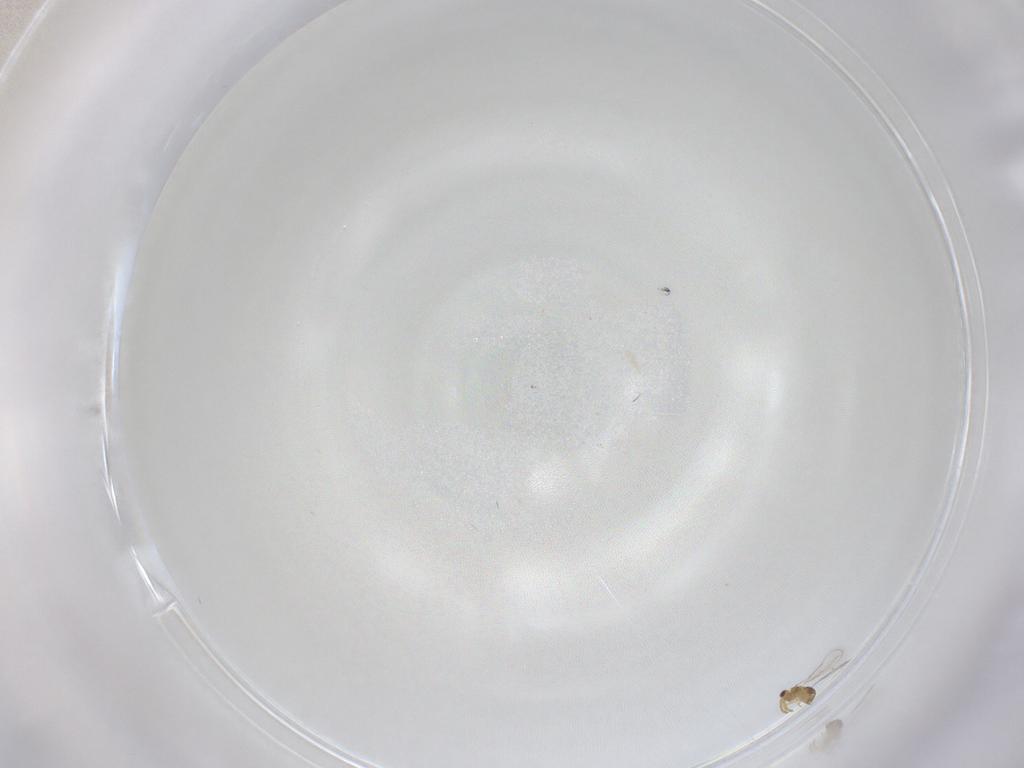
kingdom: Animalia
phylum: Arthropoda
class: Insecta
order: Hymenoptera
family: Aphelinidae
